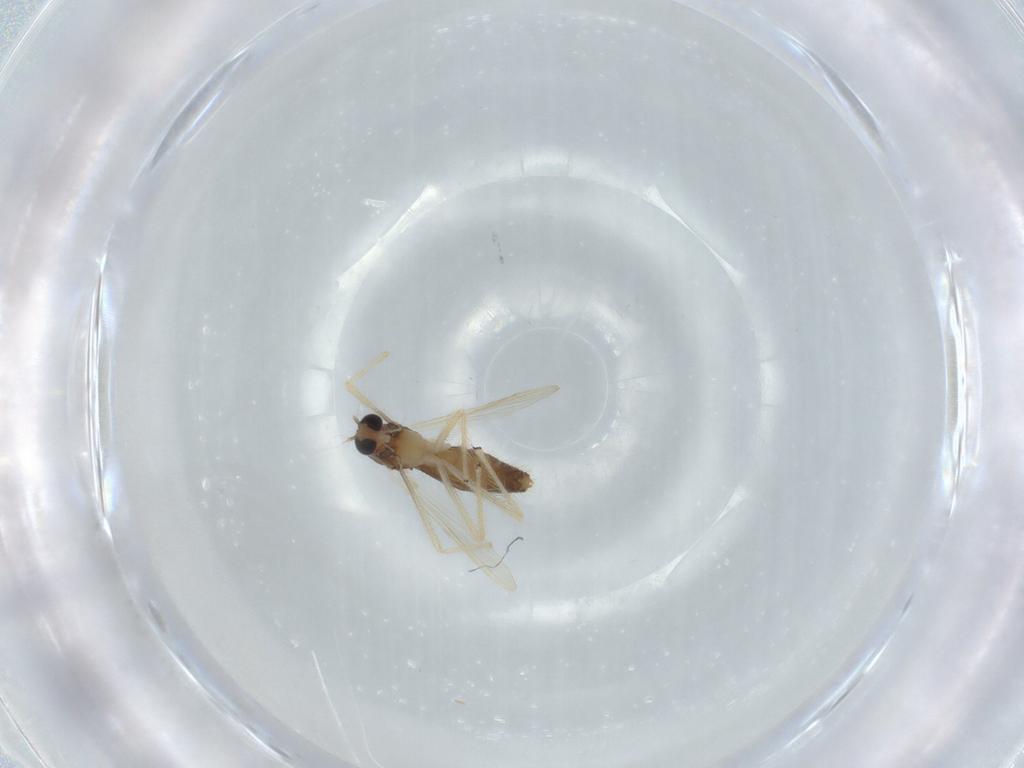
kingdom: Animalia
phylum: Arthropoda
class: Insecta
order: Diptera
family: Chironomidae
